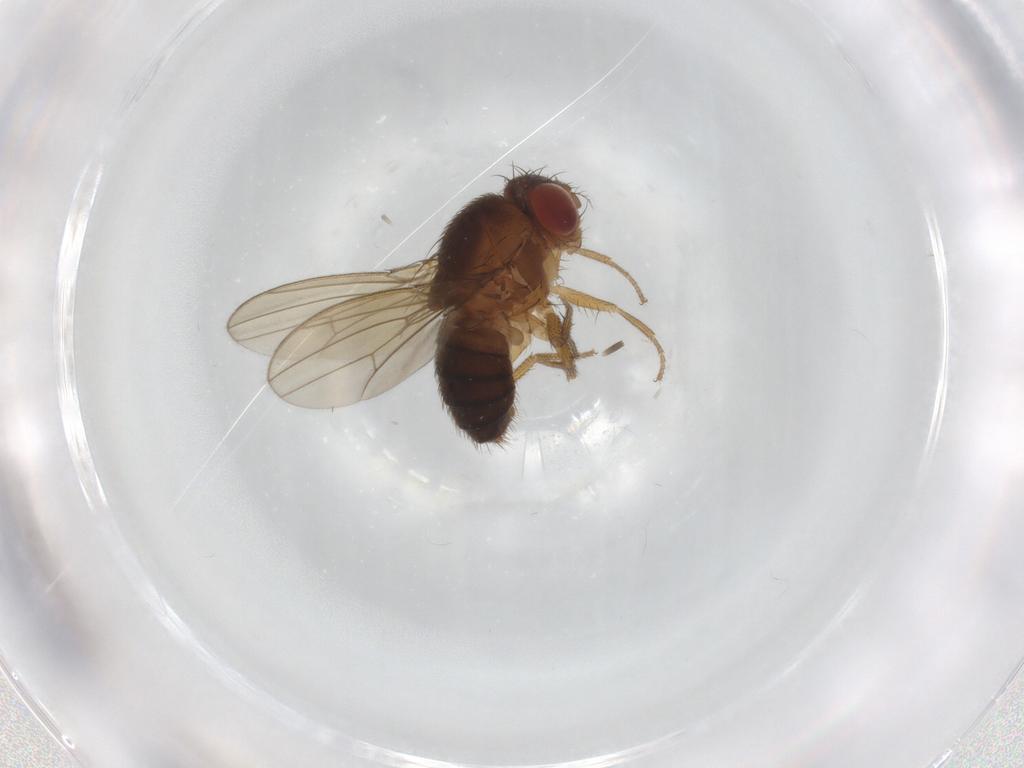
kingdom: Animalia
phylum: Arthropoda
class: Insecta
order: Diptera
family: Drosophilidae
